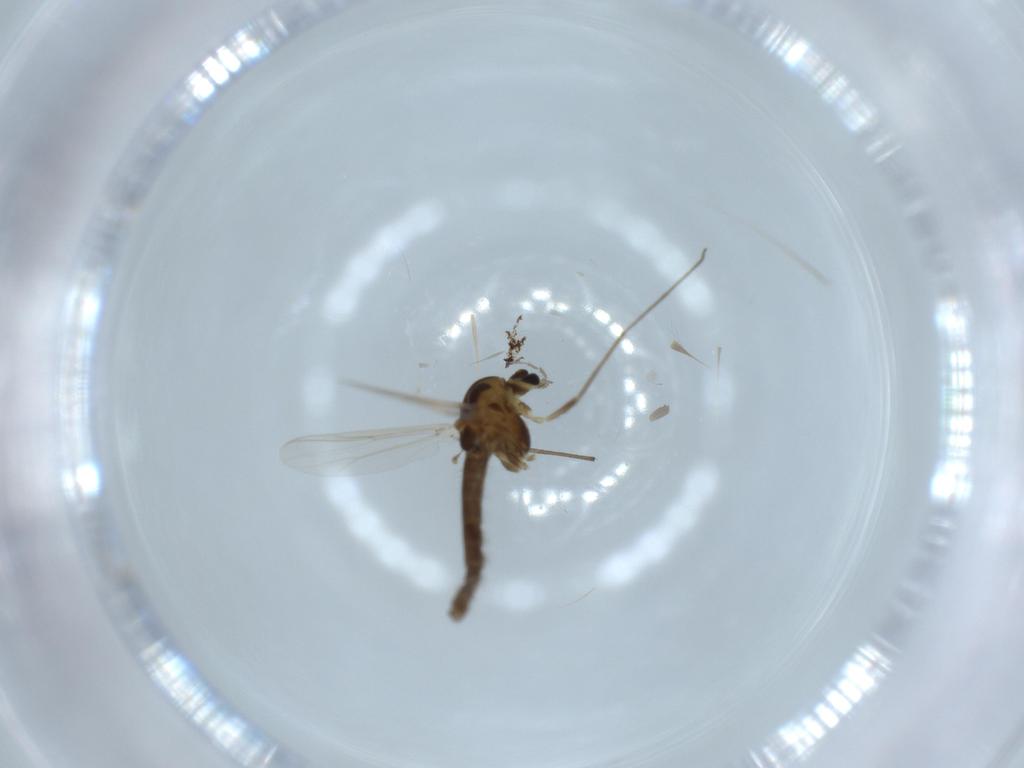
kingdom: Animalia
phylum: Arthropoda
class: Insecta
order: Diptera
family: Chironomidae
